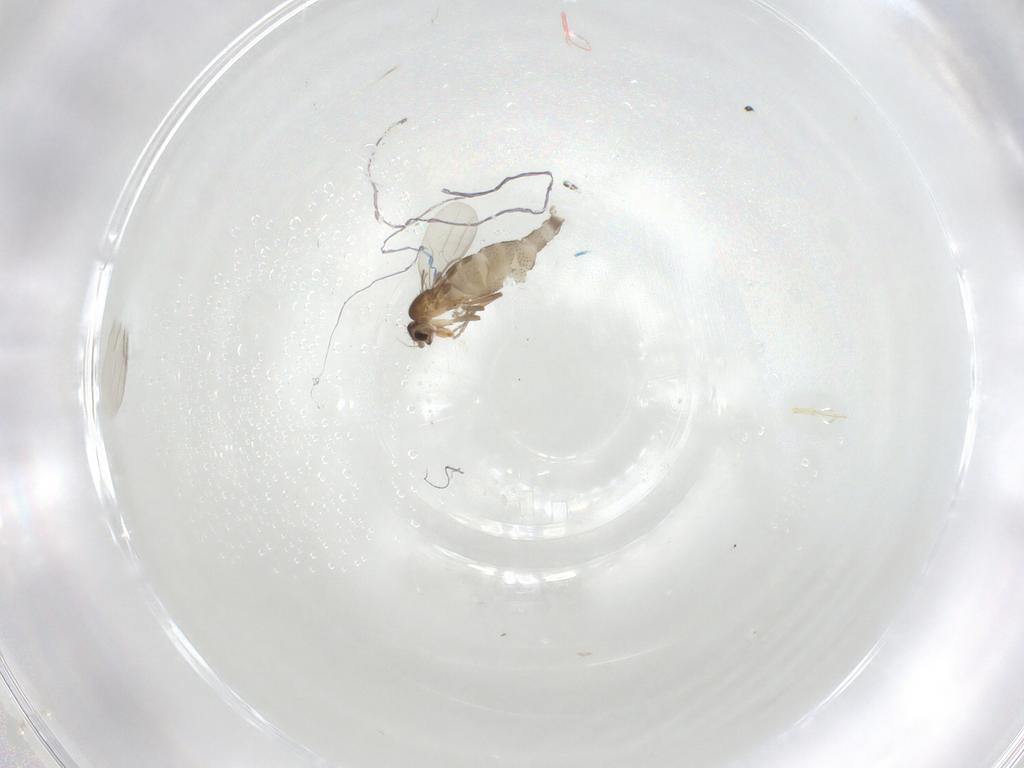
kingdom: Animalia
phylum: Arthropoda
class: Insecta
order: Diptera
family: Phoridae
